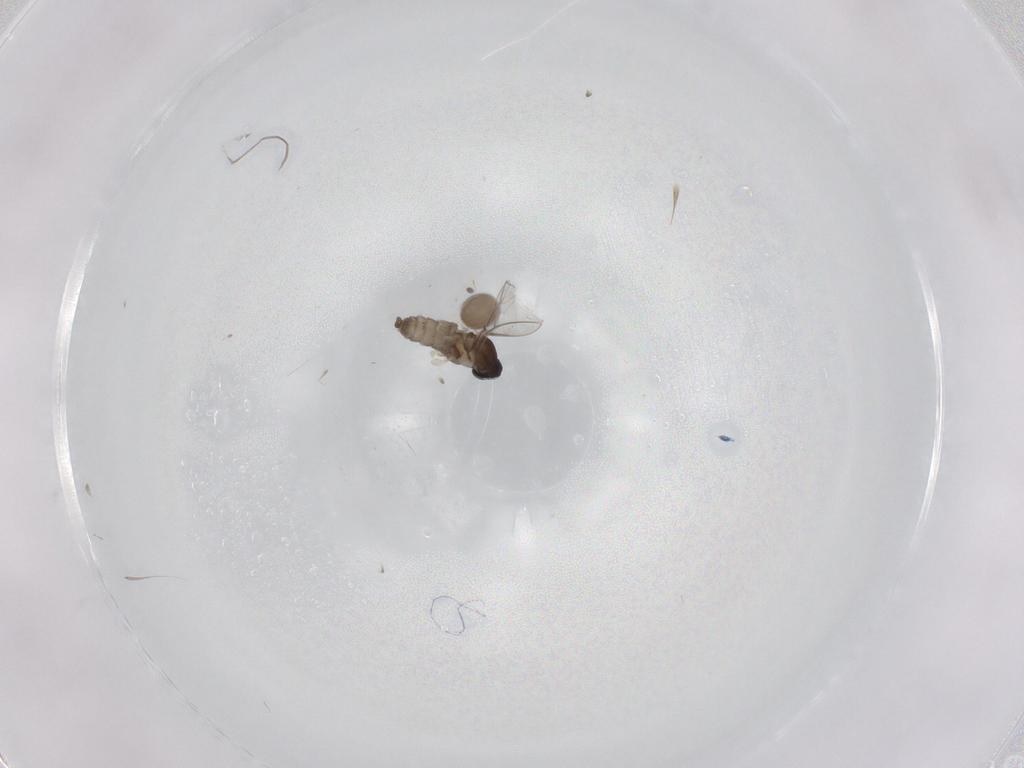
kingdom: Animalia
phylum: Arthropoda
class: Insecta
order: Diptera
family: Cecidomyiidae
